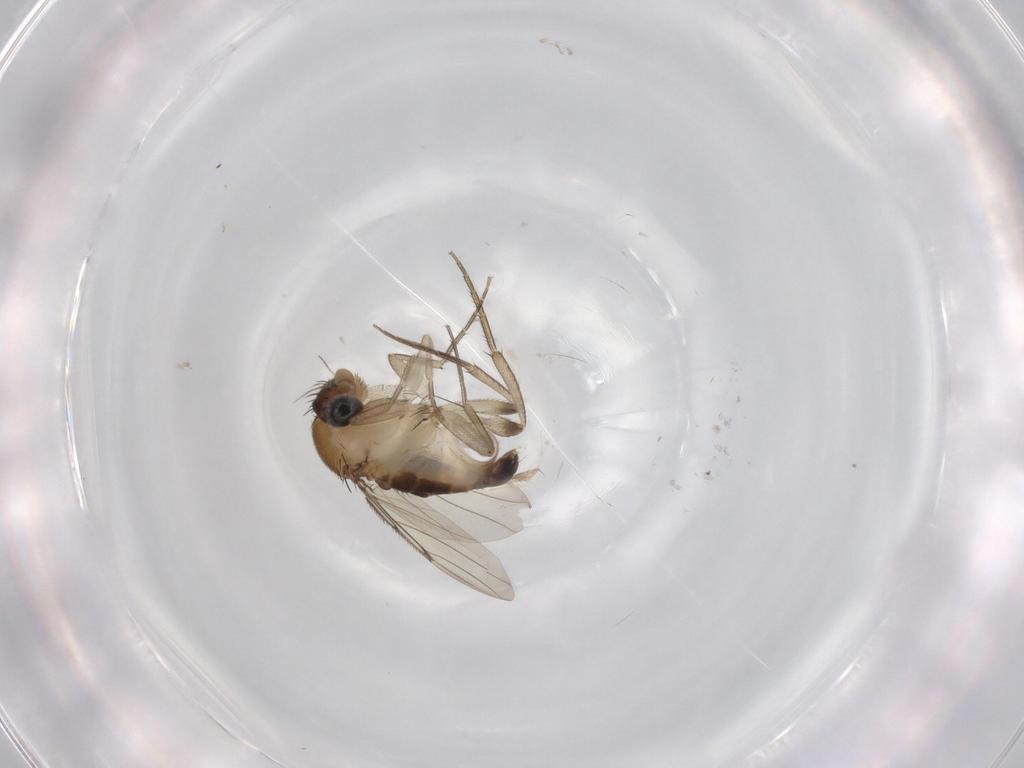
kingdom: Animalia
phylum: Arthropoda
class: Insecta
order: Diptera
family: Phoridae
